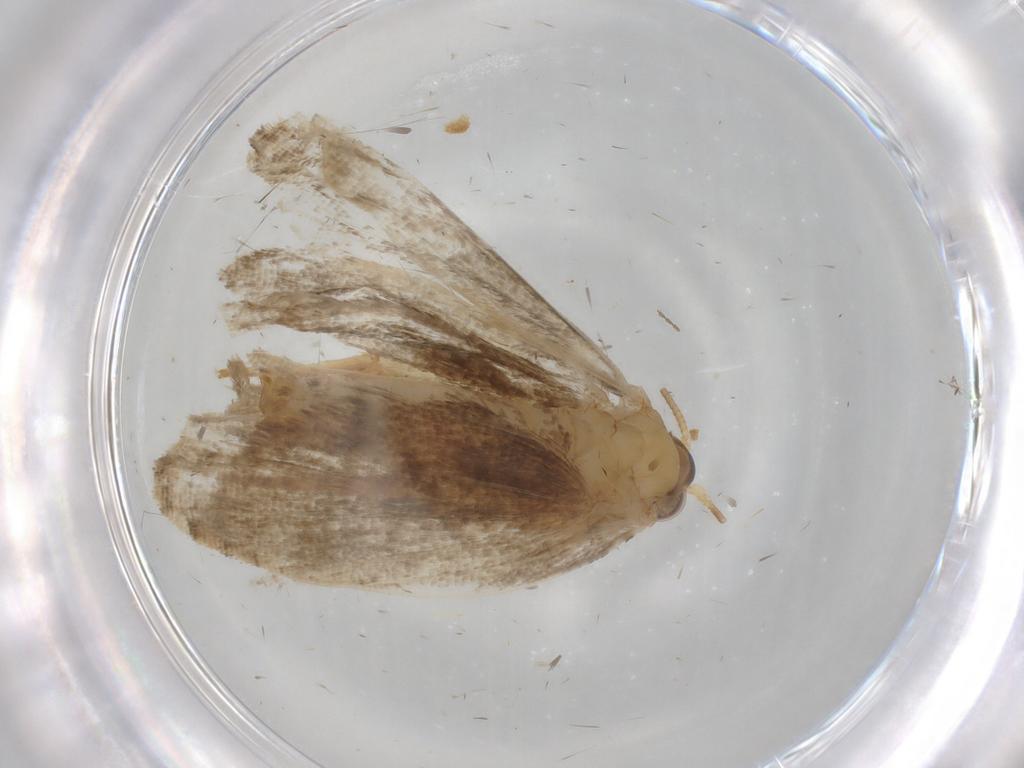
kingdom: Animalia
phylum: Arthropoda
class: Insecta
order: Lepidoptera
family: Tortricidae
